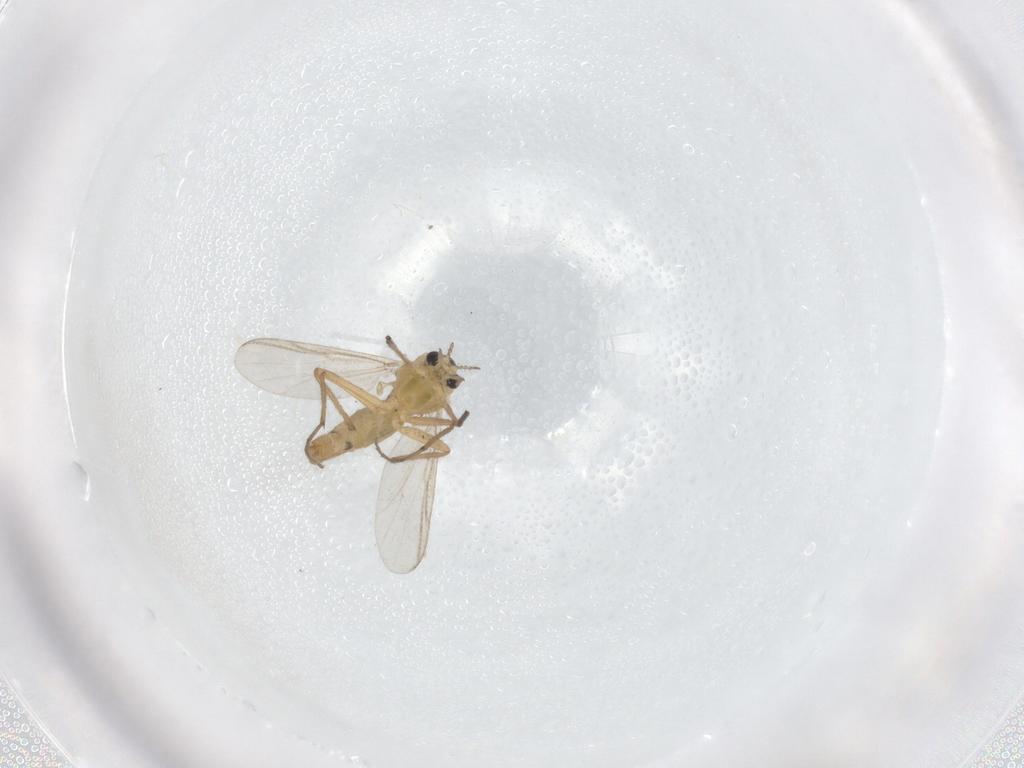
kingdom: Animalia
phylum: Arthropoda
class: Insecta
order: Diptera
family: Chironomidae
